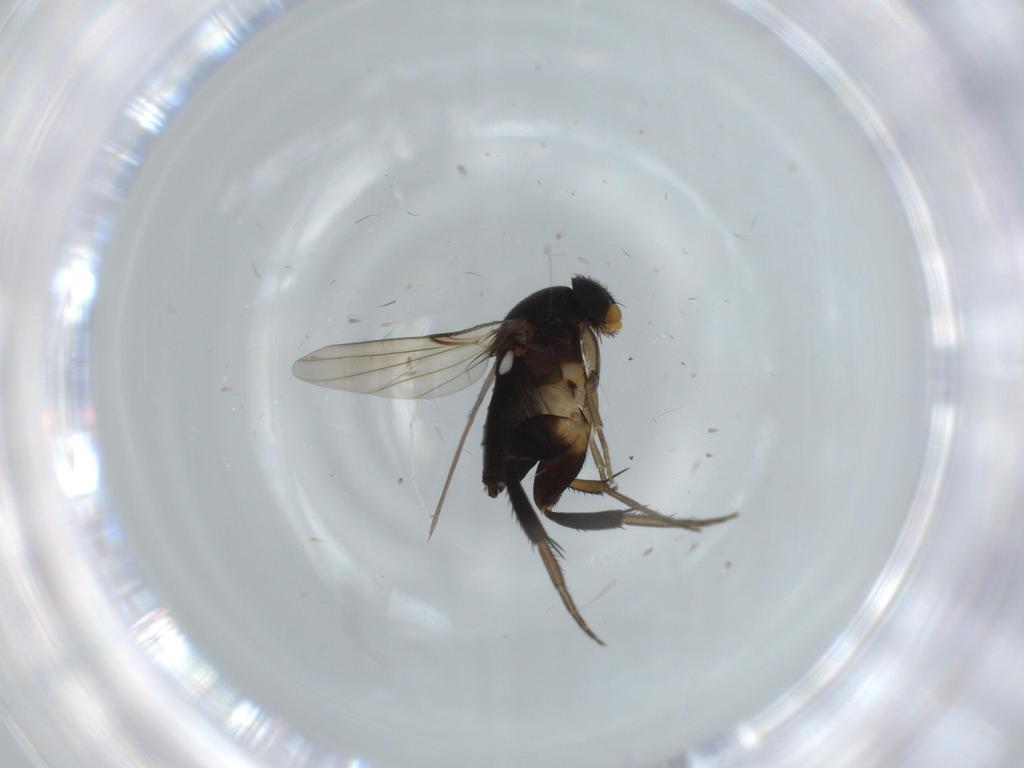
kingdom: Animalia
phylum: Arthropoda
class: Insecta
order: Diptera
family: Phoridae
